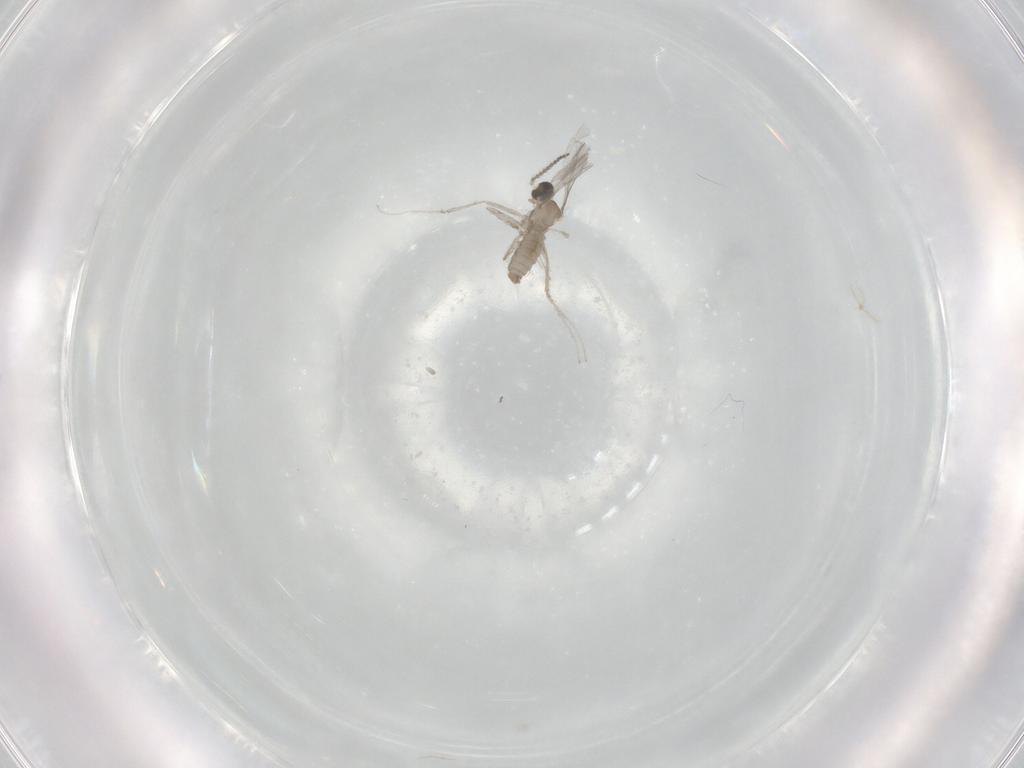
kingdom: Animalia
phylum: Arthropoda
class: Insecta
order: Diptera
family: Cecidomyiidae
